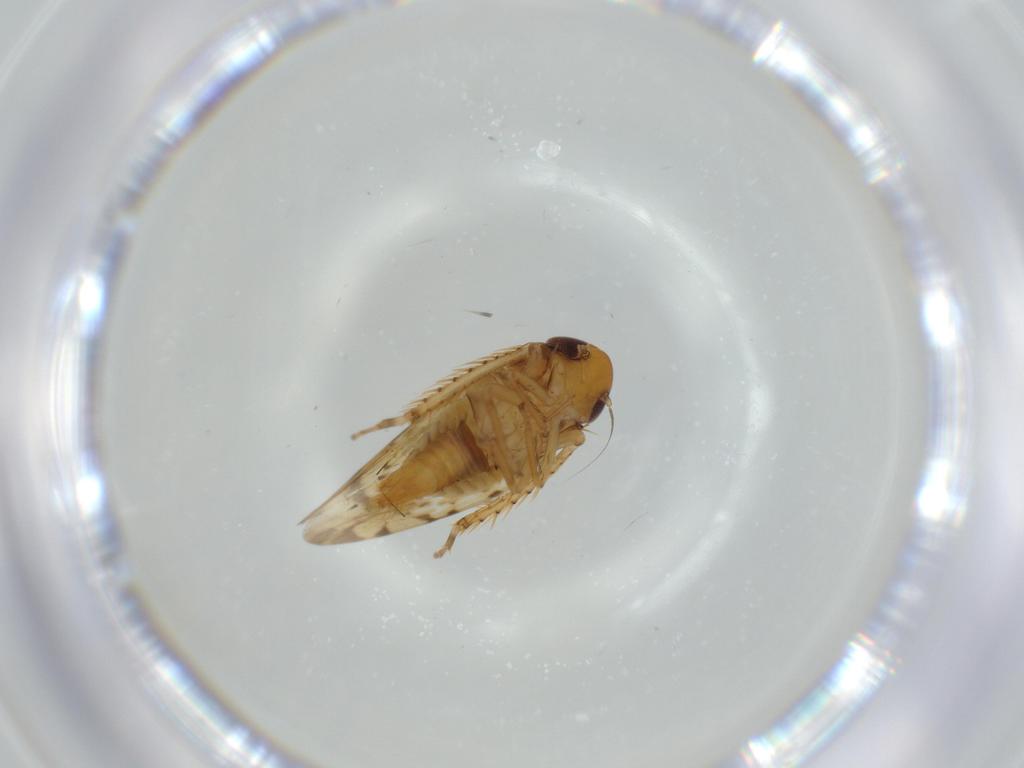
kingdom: Animalia
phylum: Arthropoda
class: Insecta
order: Hemiptera
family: Cicadellidae
